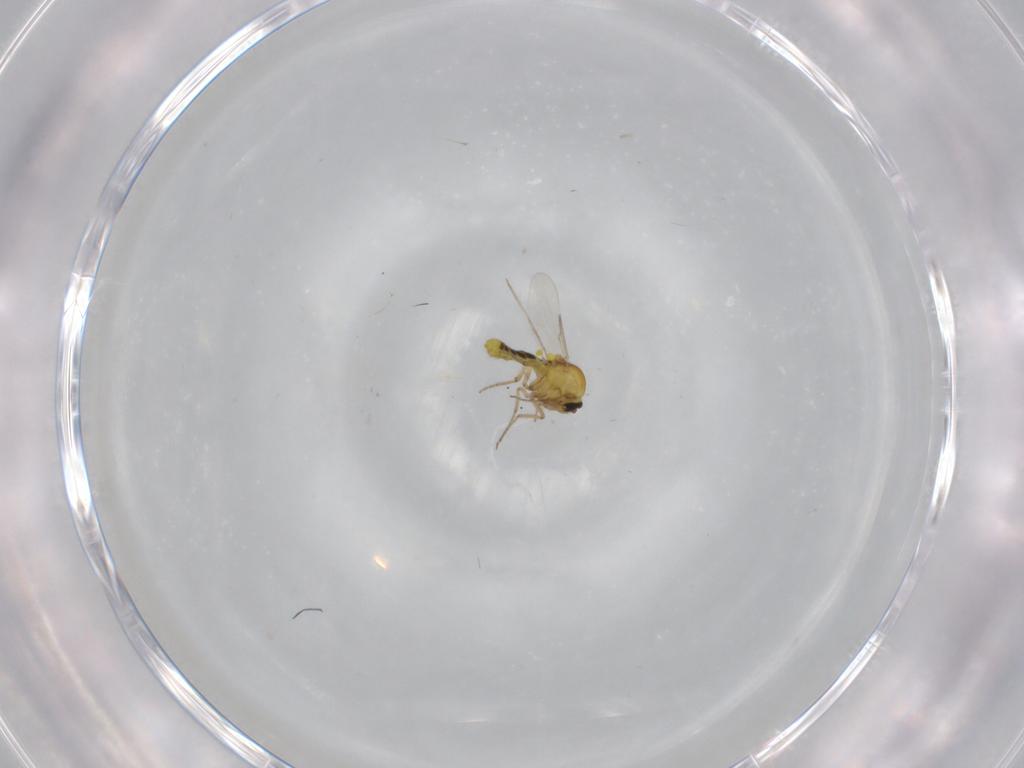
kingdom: Animalia
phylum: Arthropoda
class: Insecta
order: Diptera
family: Ceratopogonidae
